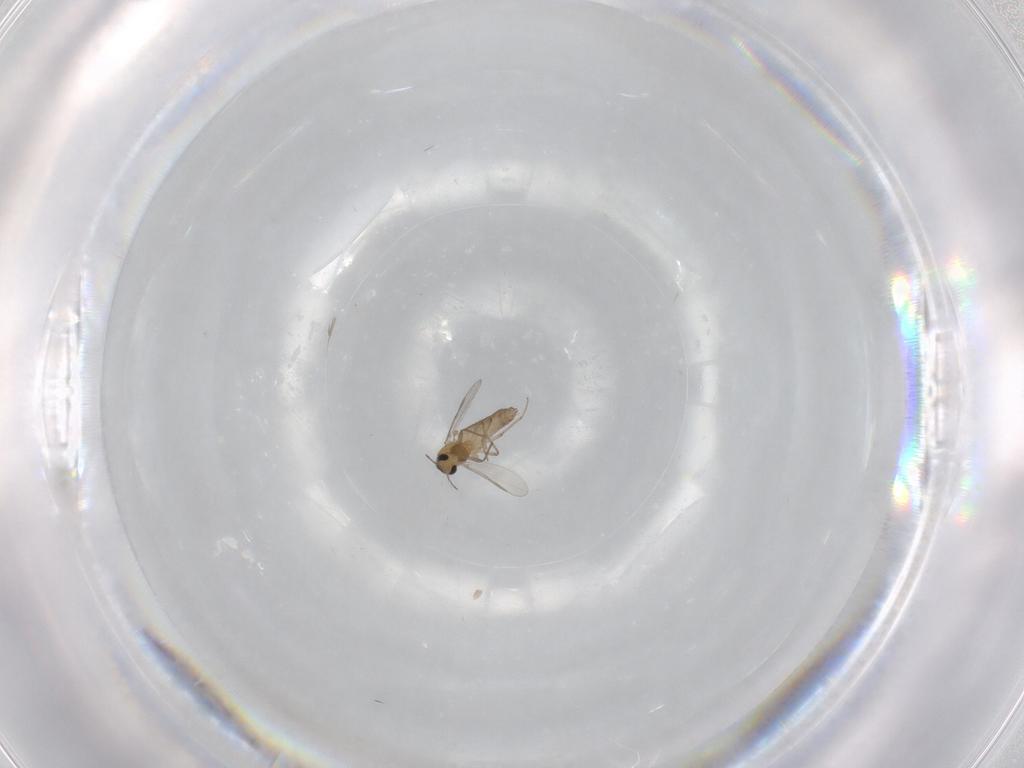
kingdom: Animalia
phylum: Arthropoda
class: Insecta
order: Diptera
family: Chironomidae
